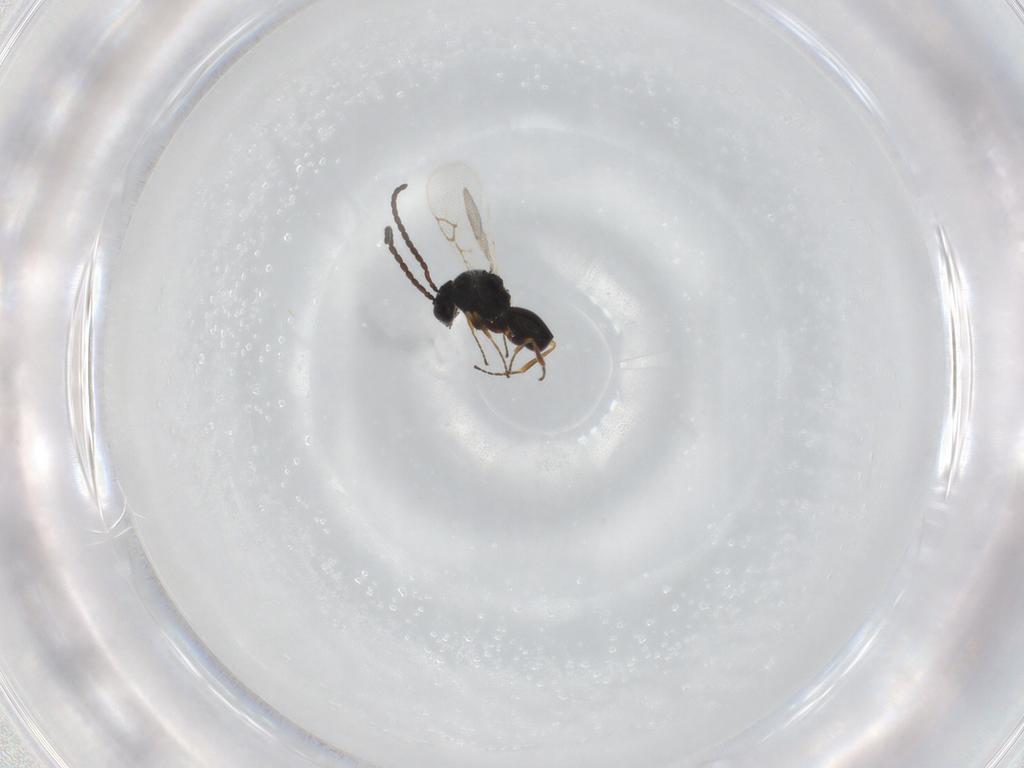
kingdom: Animalia
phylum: Arthropoda
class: Insecta
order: Hymenoptera
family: Figitidae
